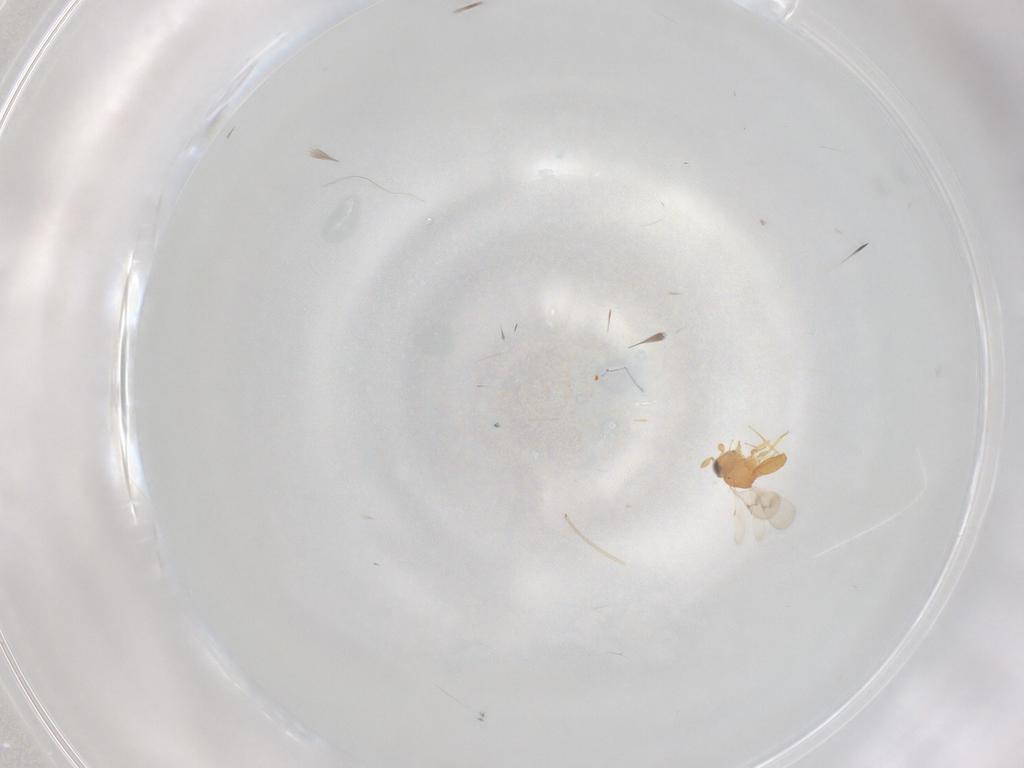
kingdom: Animalia
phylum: Arthropoda
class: Insecta
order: Hymenoptera
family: Scelionidae
